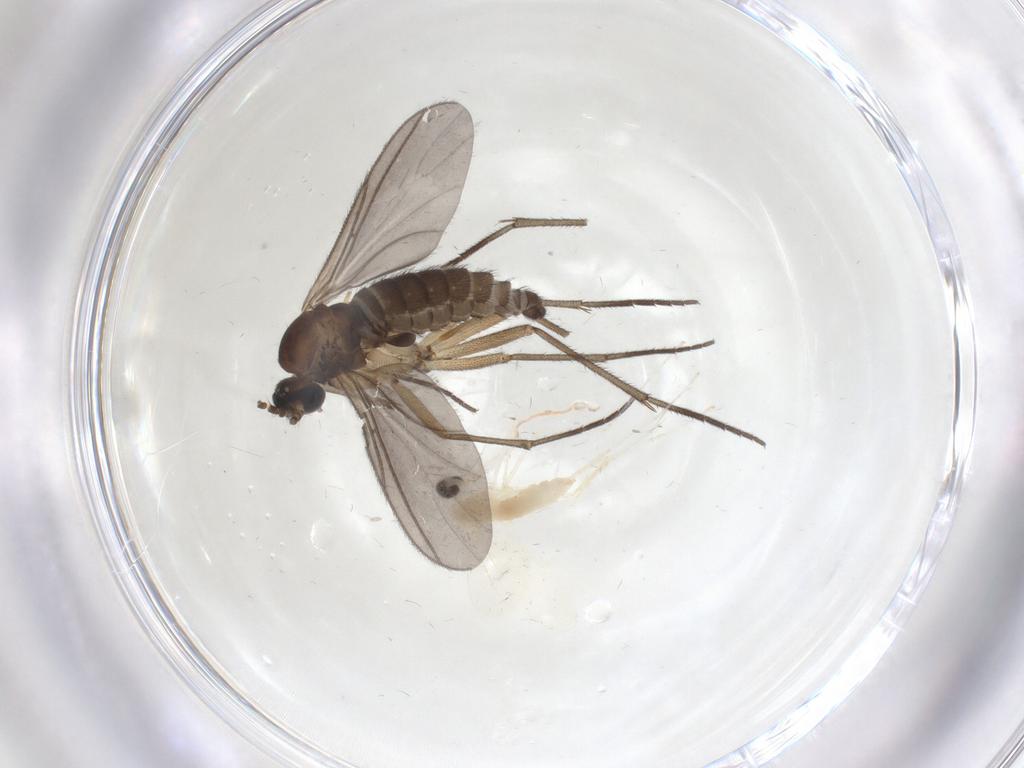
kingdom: Animalia
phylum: Arthropoda
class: Insecta
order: Diptera
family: Cecidomyiidae
